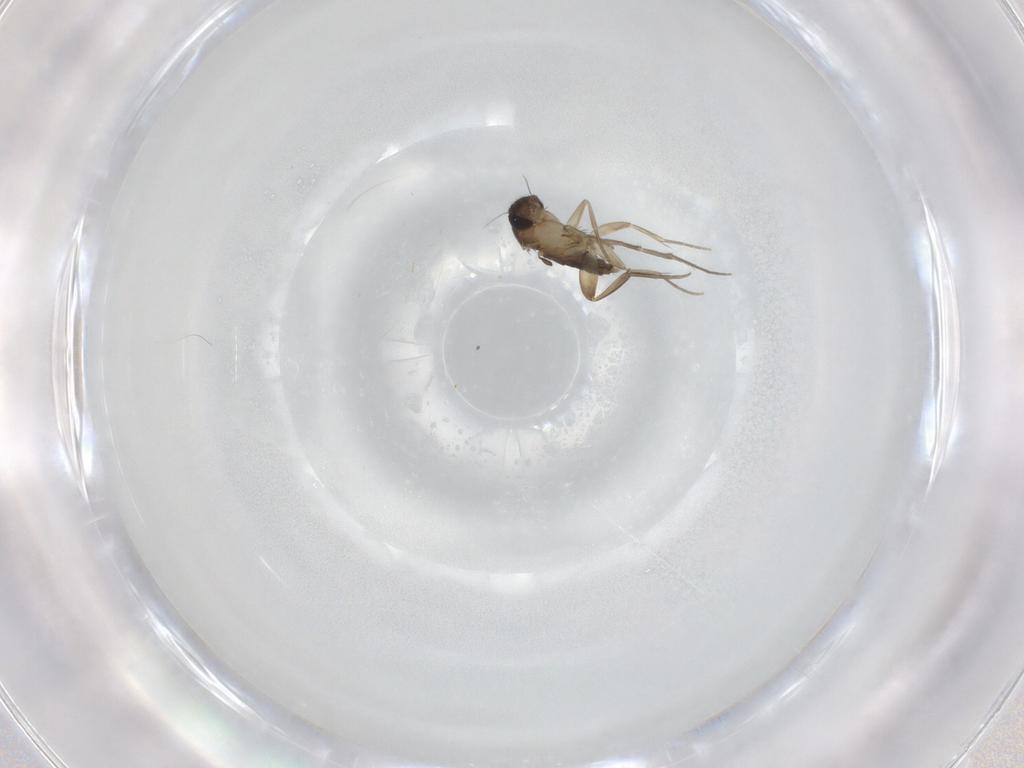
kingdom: Animalia
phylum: Arthropoda
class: Insecta
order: Diptera
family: Phoridae
